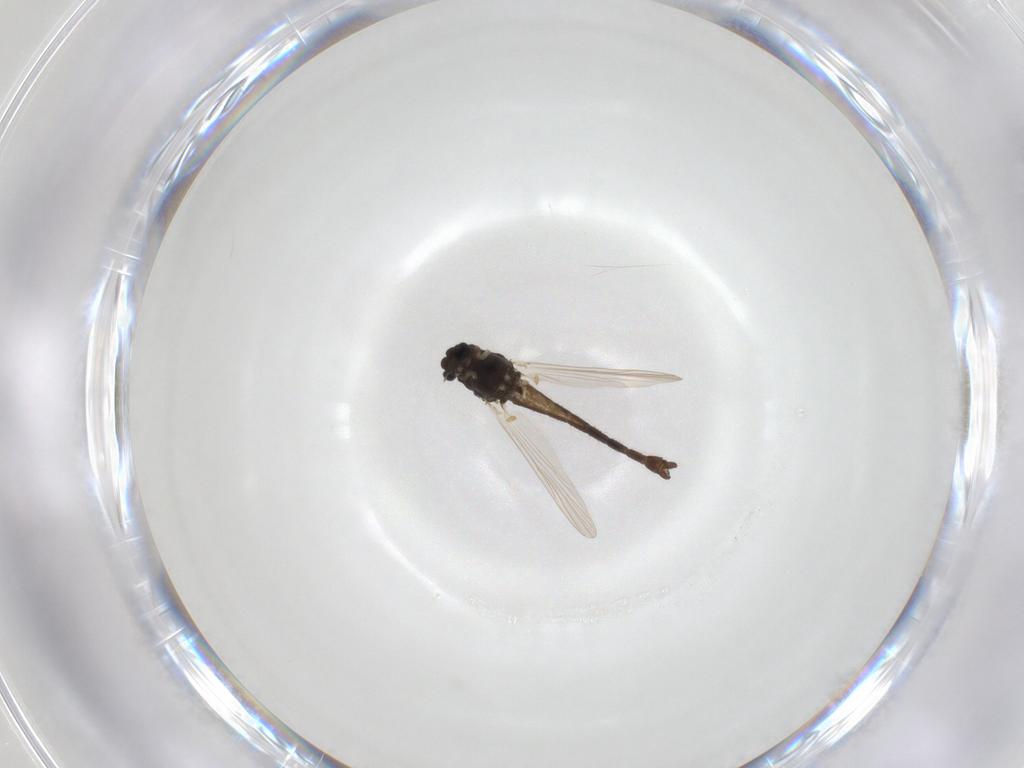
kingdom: Animalia
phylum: Arthropoda
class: Insecta
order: Diptera
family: Chironomidae
